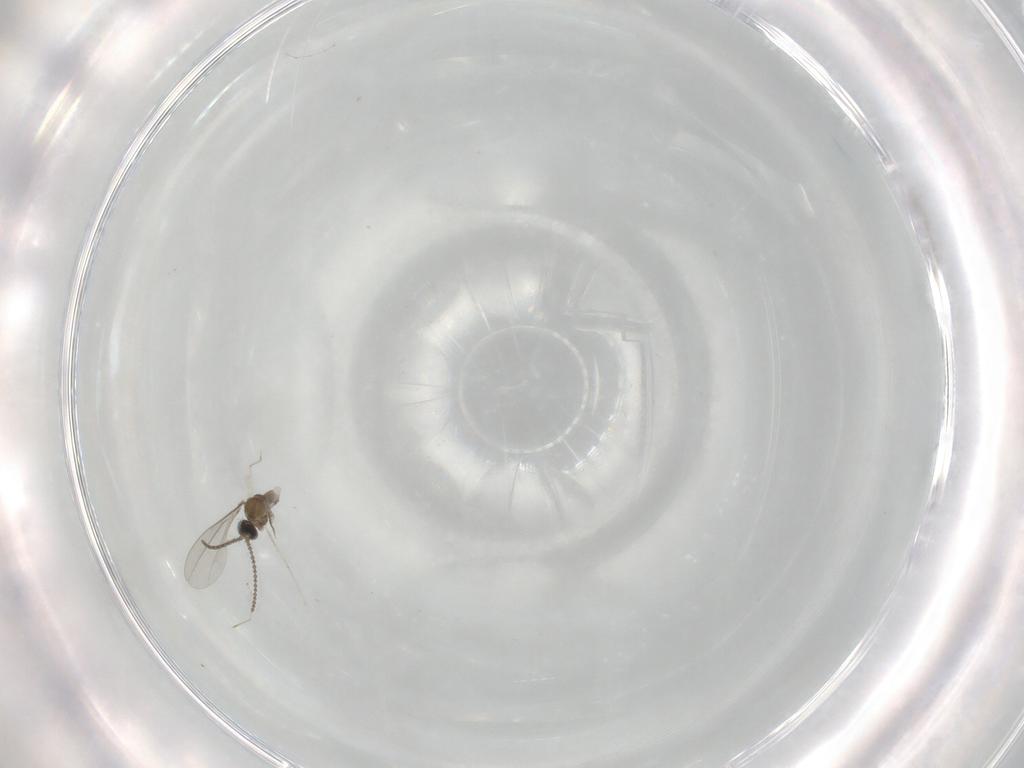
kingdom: Animalia
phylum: Arthropoda
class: Insecta
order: Diptera
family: Cecidomyiidae
